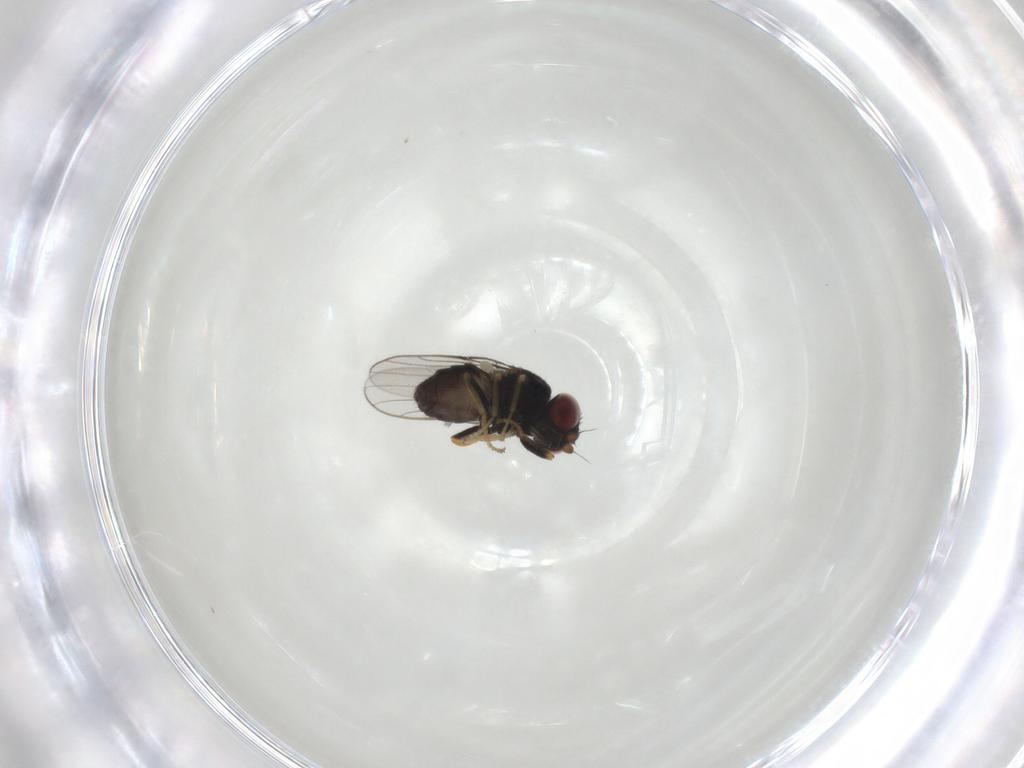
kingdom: Animalia
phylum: Arthropoda
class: Insecta
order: Diptera
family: Chloropidae
